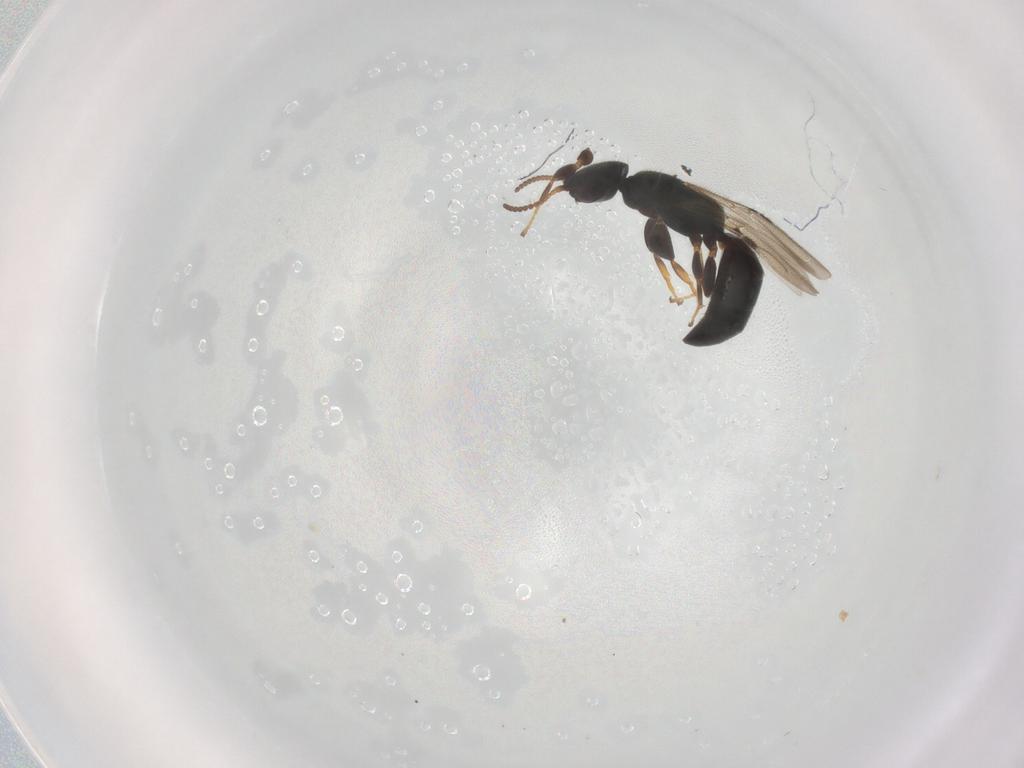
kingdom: Animalia
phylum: Arthropoda
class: Insecta
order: Hymenoptera
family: Bethylidae
